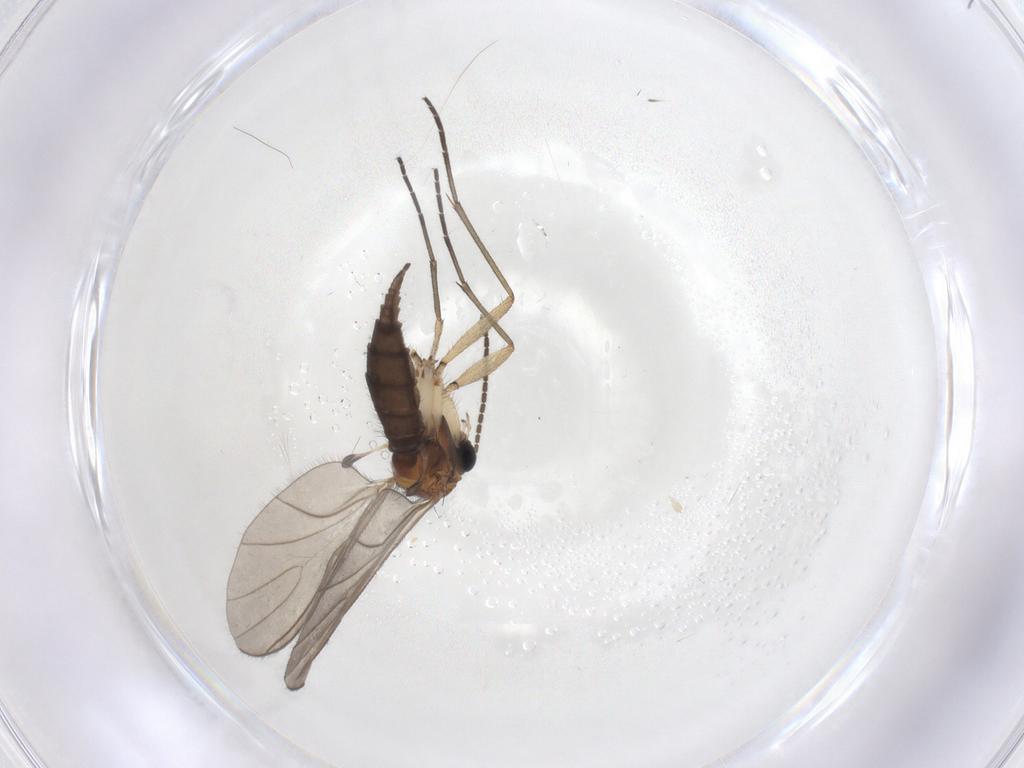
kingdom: Animalia
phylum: Arthropoda
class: Insecta
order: Diptera
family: Sciaridae
